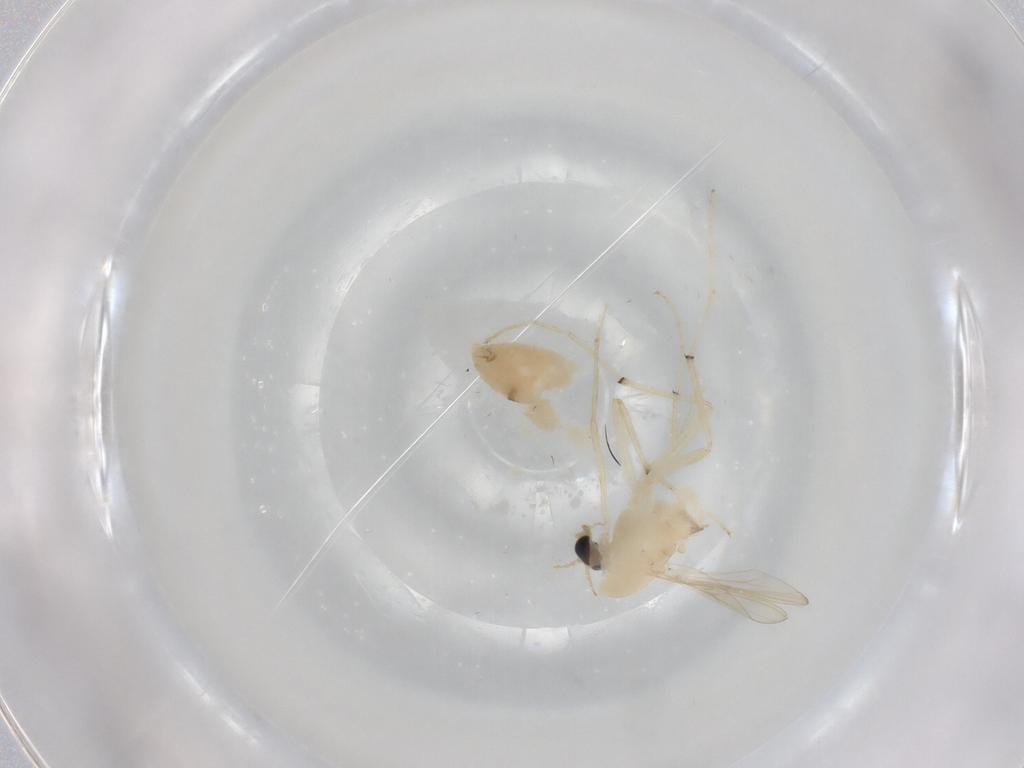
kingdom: Animalia
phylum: Arthropoda
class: Insecta
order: Diptera
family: Chironomidae
